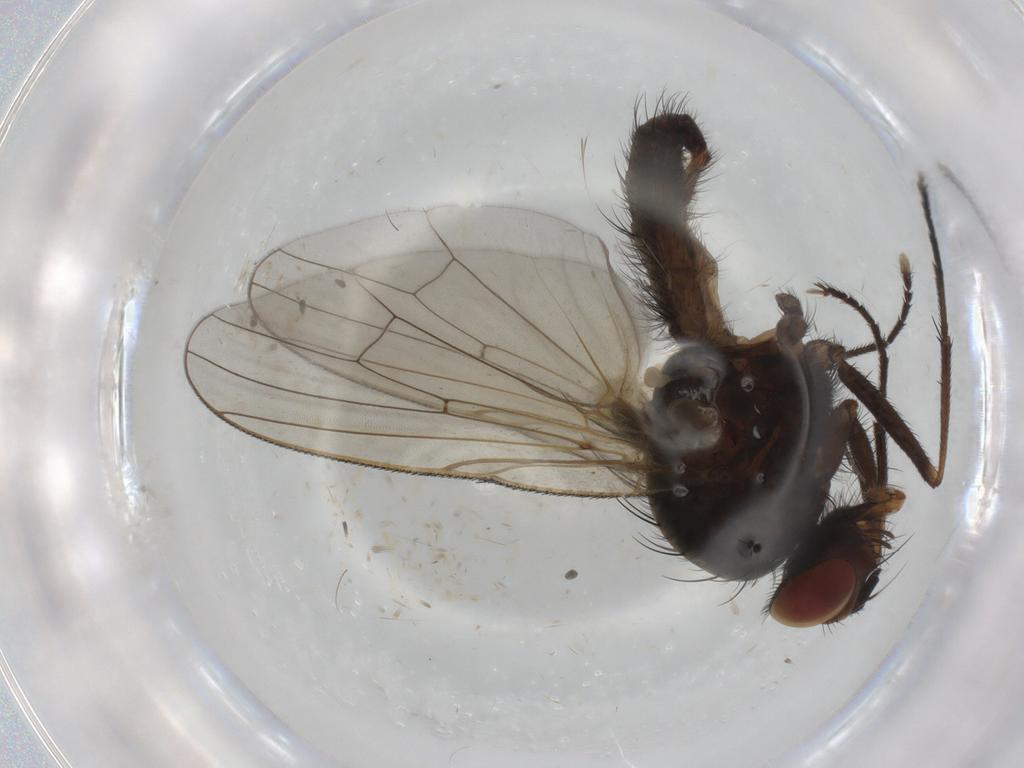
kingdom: Animalia
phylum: Arthropoda
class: Insecta
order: Diptera
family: Anthomyiidae
